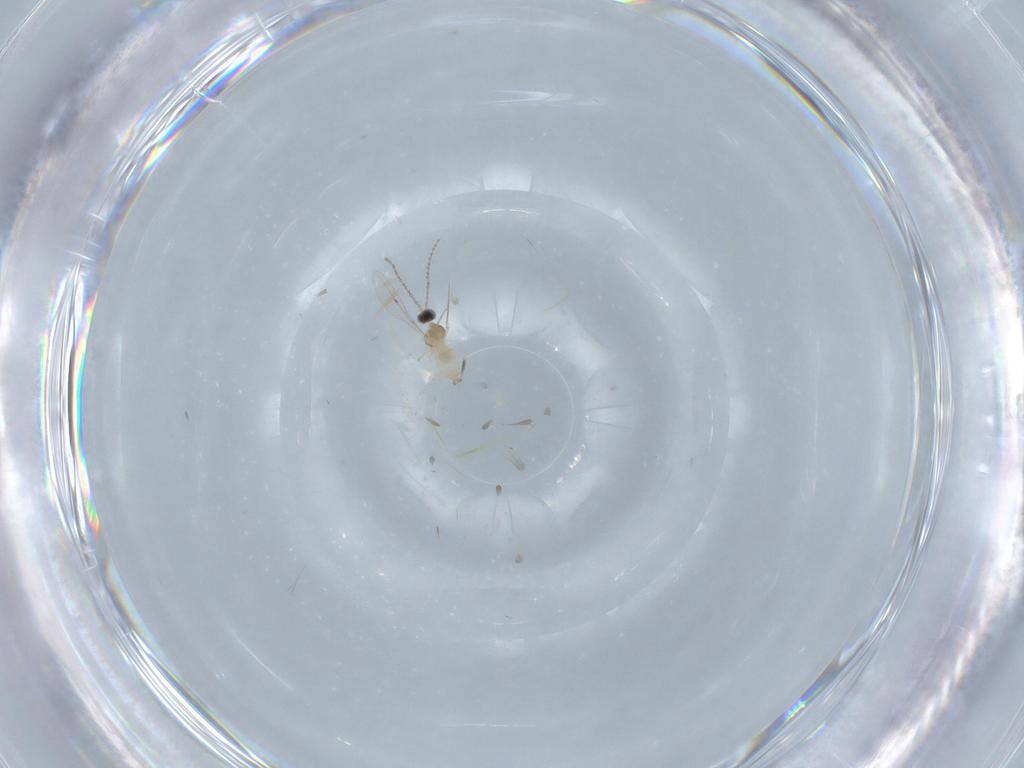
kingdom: Animalia
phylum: Arthropoda
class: Insecta
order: Diptera
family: Cecidomyiidae
